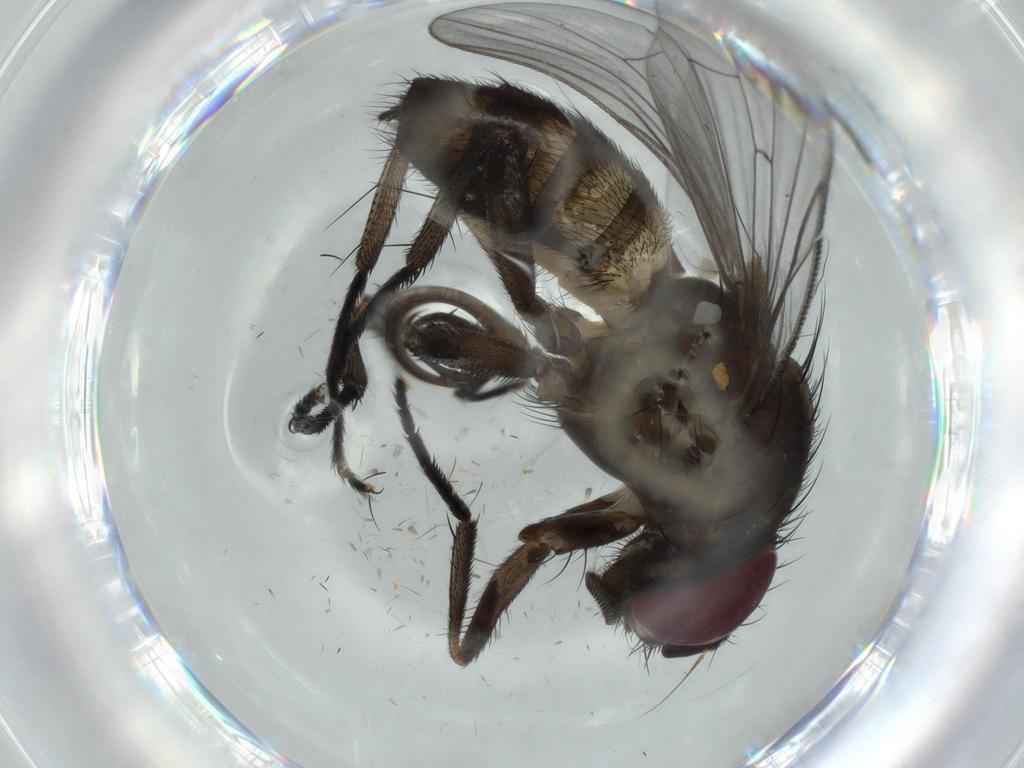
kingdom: Animalia
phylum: Arthropoda
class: Insecta
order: Diptera
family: Sciaridae
